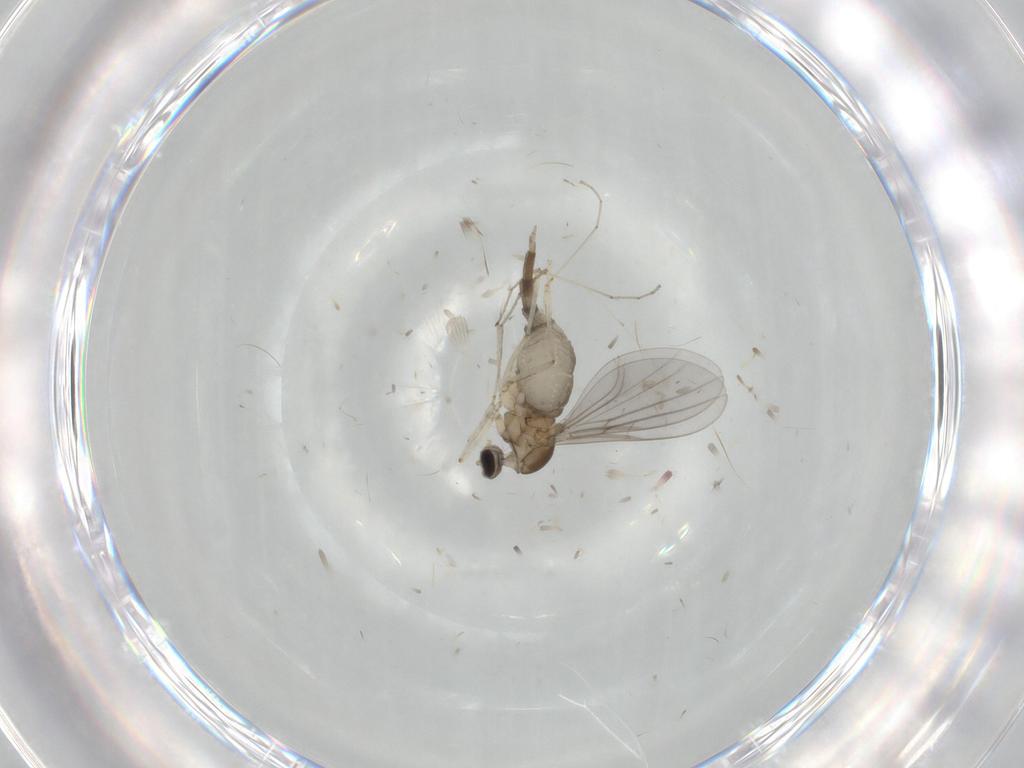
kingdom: Animalia
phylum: Arthropoda
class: Insecta
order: Diptera
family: Cecidomyiidae
